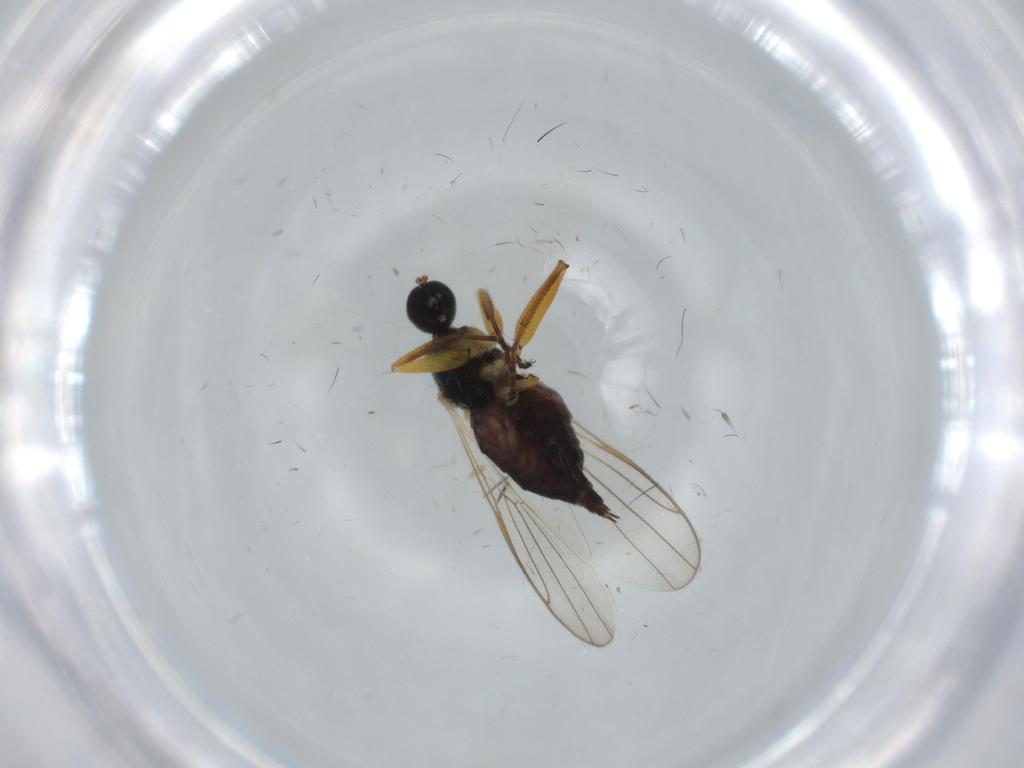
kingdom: Animalia
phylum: Arthropoda
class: Insecta
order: Diptera
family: Hybotidae
